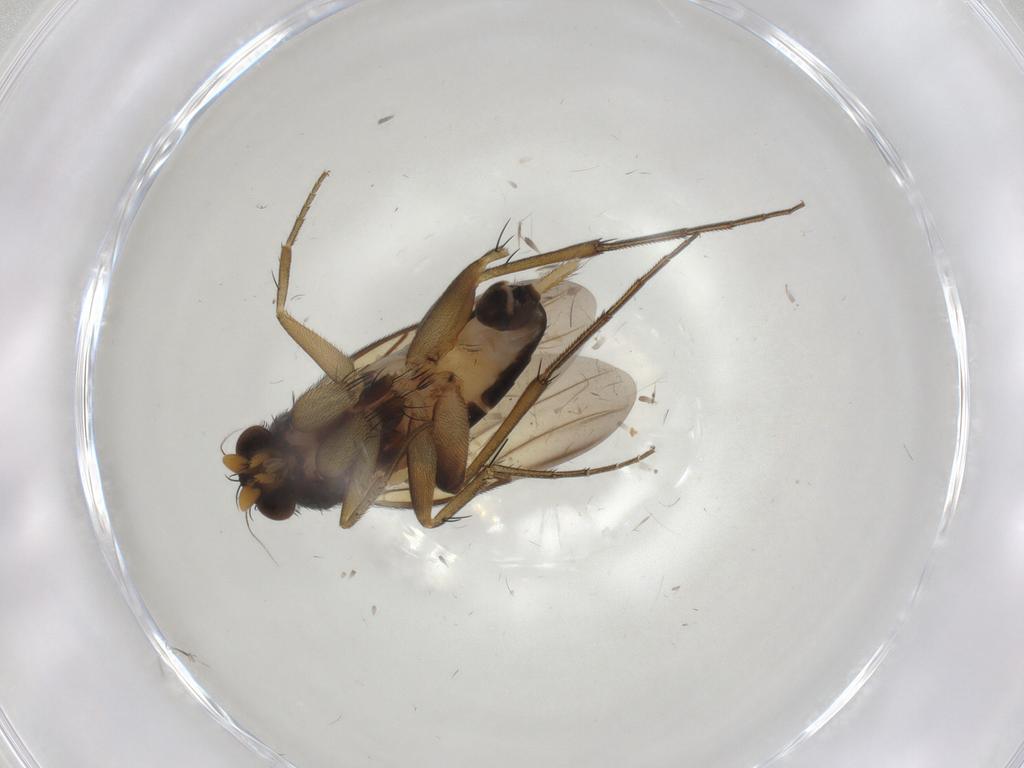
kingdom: Animalia
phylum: Arthropoda
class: Insecta
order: Diptera
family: Phoridae
